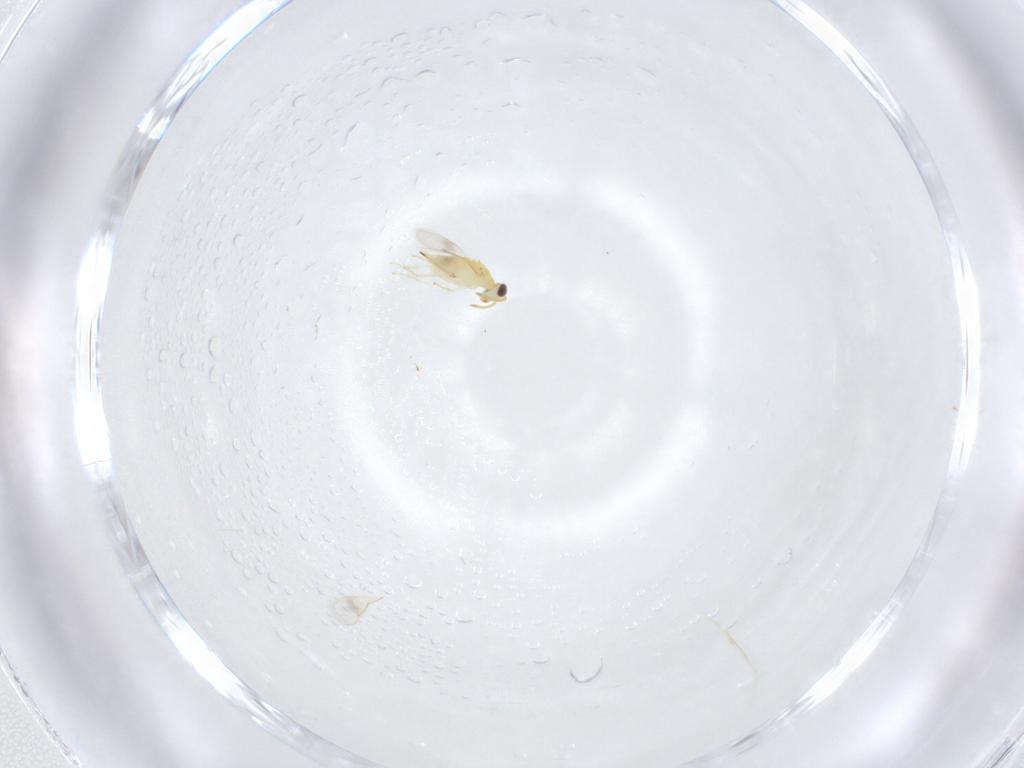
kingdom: Animalia
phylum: Arthropoda
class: Insecta
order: Hymenoptera
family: Aphelinidae
